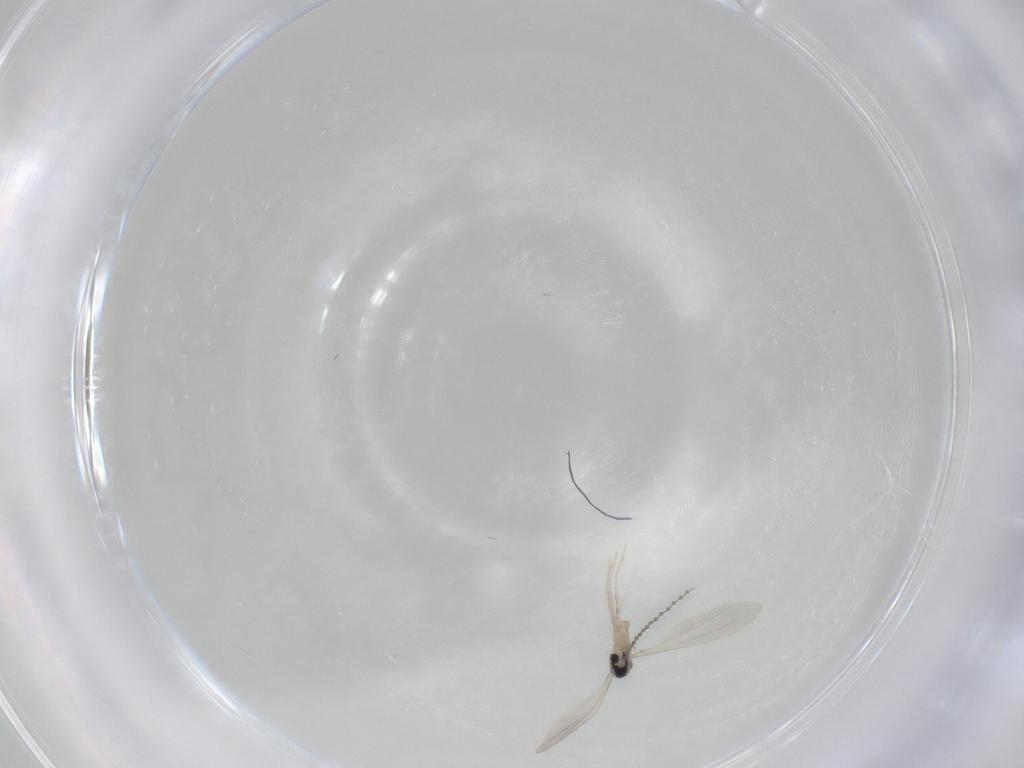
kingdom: Animalia
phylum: Arthropoda
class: Insecta
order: Diptera
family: Cecidomyiidae
